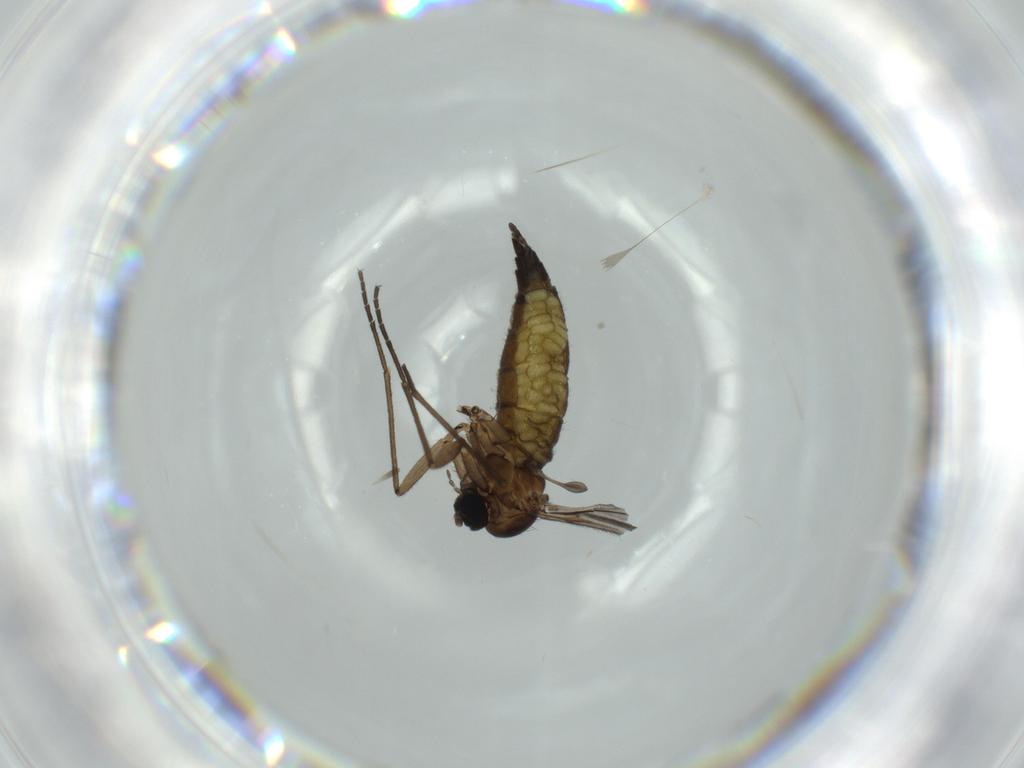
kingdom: Animalia
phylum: Arthropoda
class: Insecta
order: Diptera
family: Sciaridae
